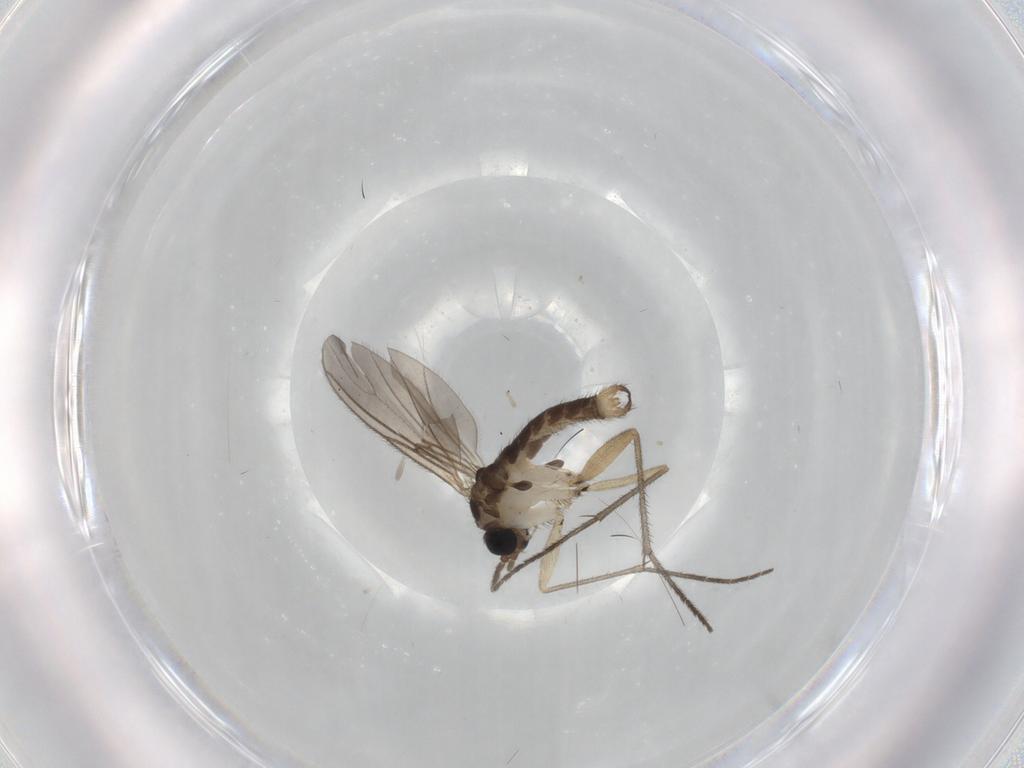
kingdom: Animalia
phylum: Arthropoda
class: Insecta
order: Diptera
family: Sciaridae
